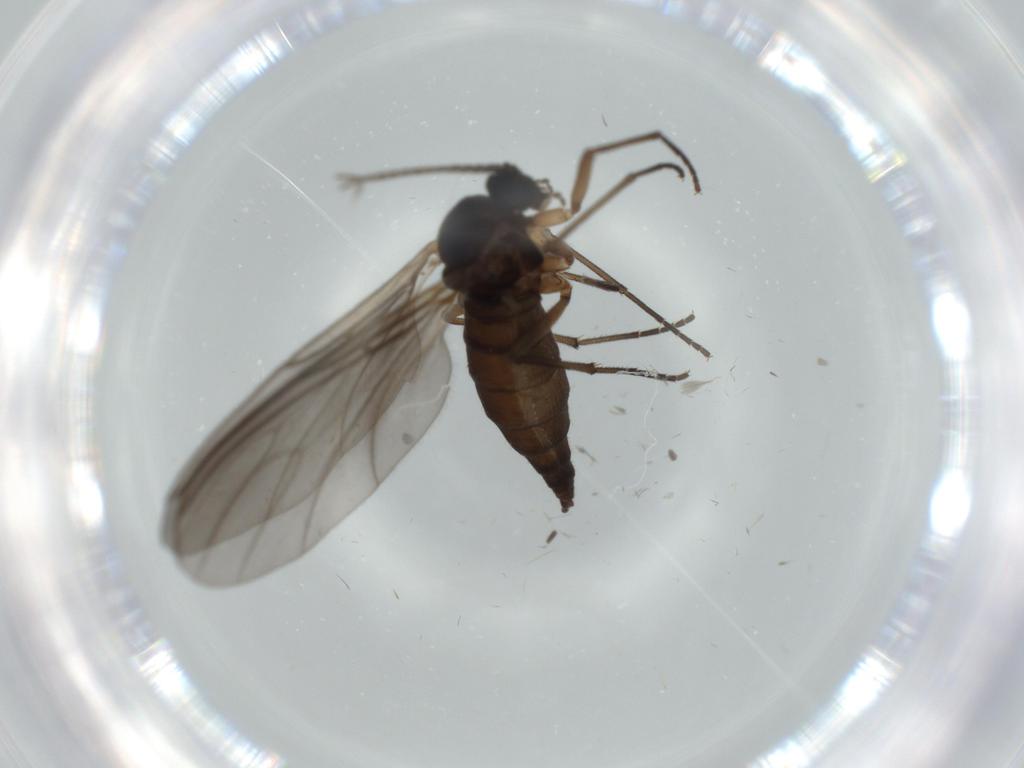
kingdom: Animalia
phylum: Arthropoda
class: Insecta
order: Diptera
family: Sciaridae
